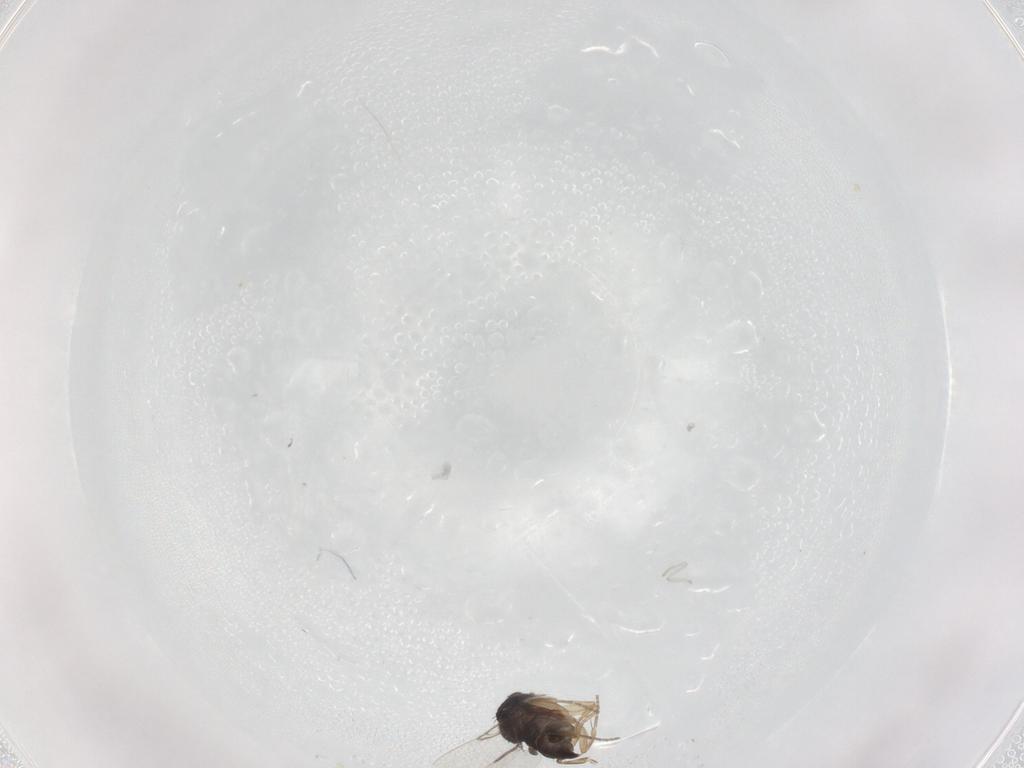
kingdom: Animalia
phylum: Arthropoda
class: Insecta
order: Diptera
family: Phoridae
